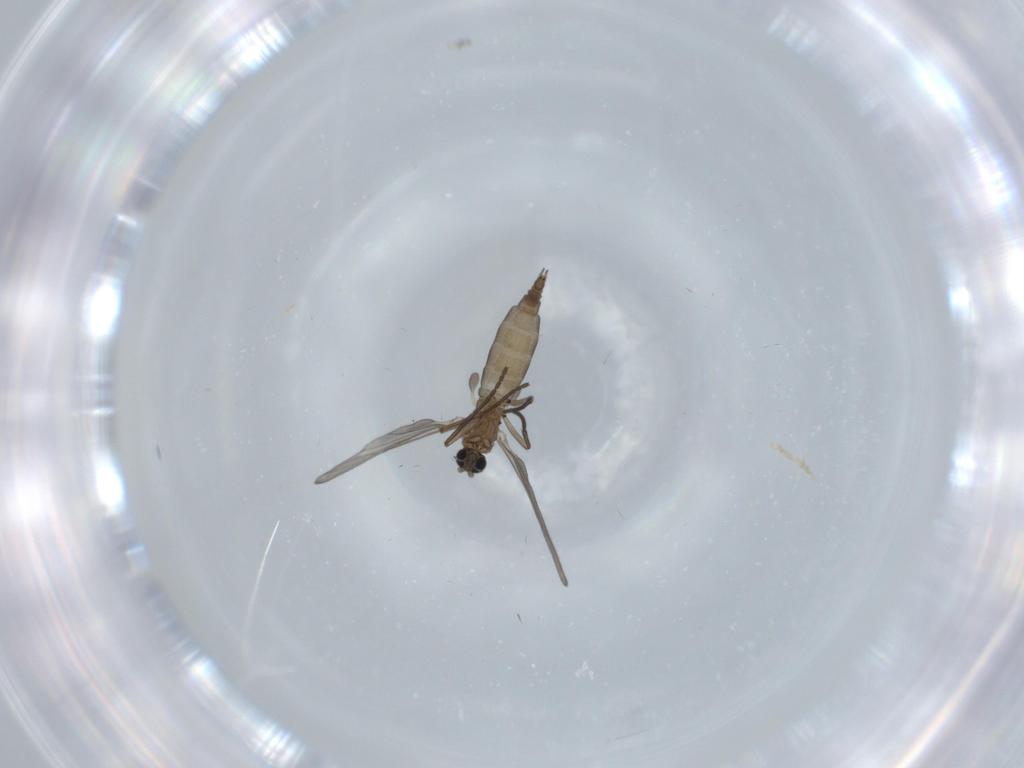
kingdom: Animalia
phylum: Arthropoda
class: Insecta
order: Diptera
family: Sciaridae
